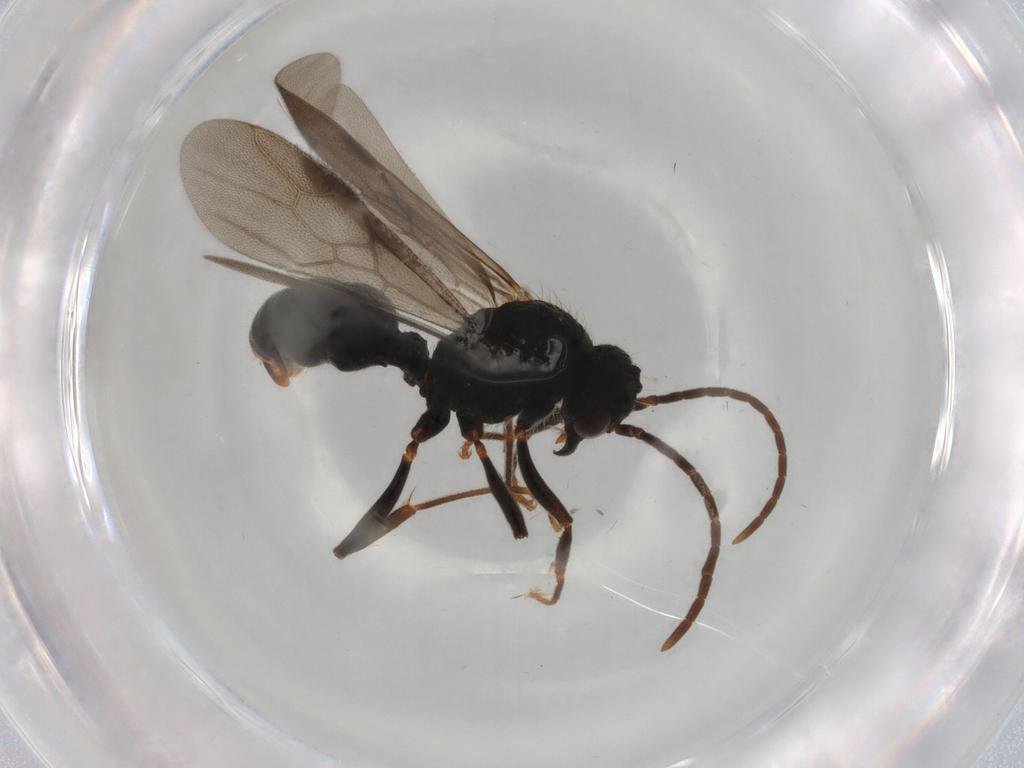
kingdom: Animalia
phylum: Arthropoda
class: Insecta
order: Hymenoptera
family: Formicidae
